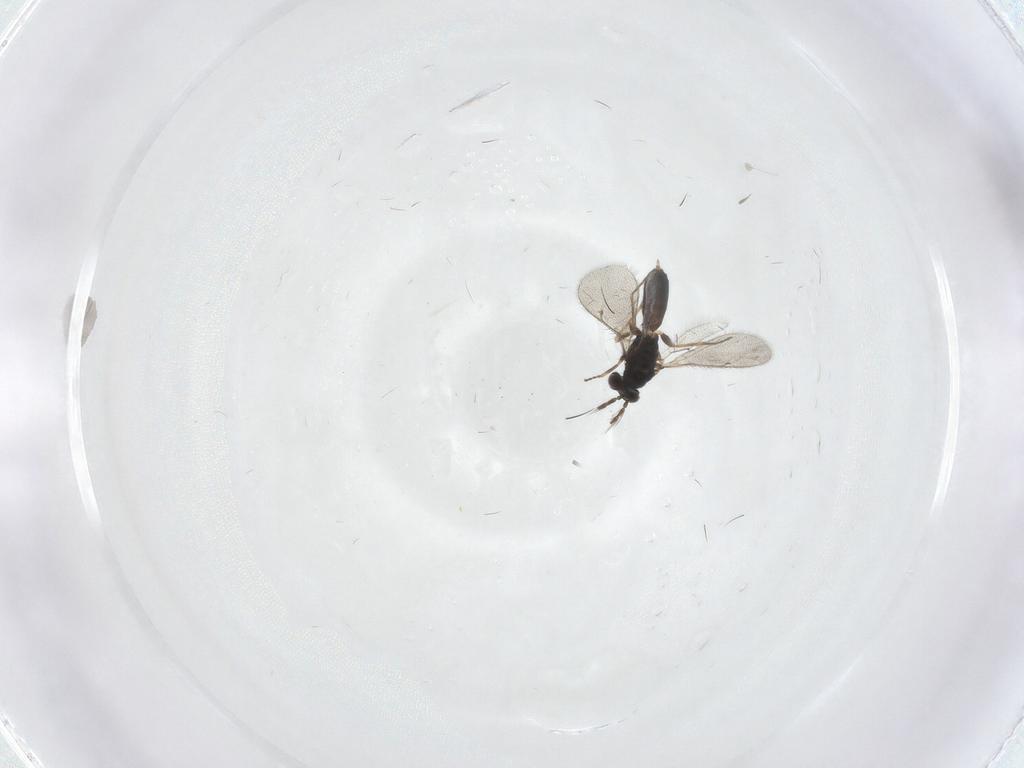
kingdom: Animalia
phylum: Arthropoda
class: Insecta
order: Hymenoptera
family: Eulophidae
